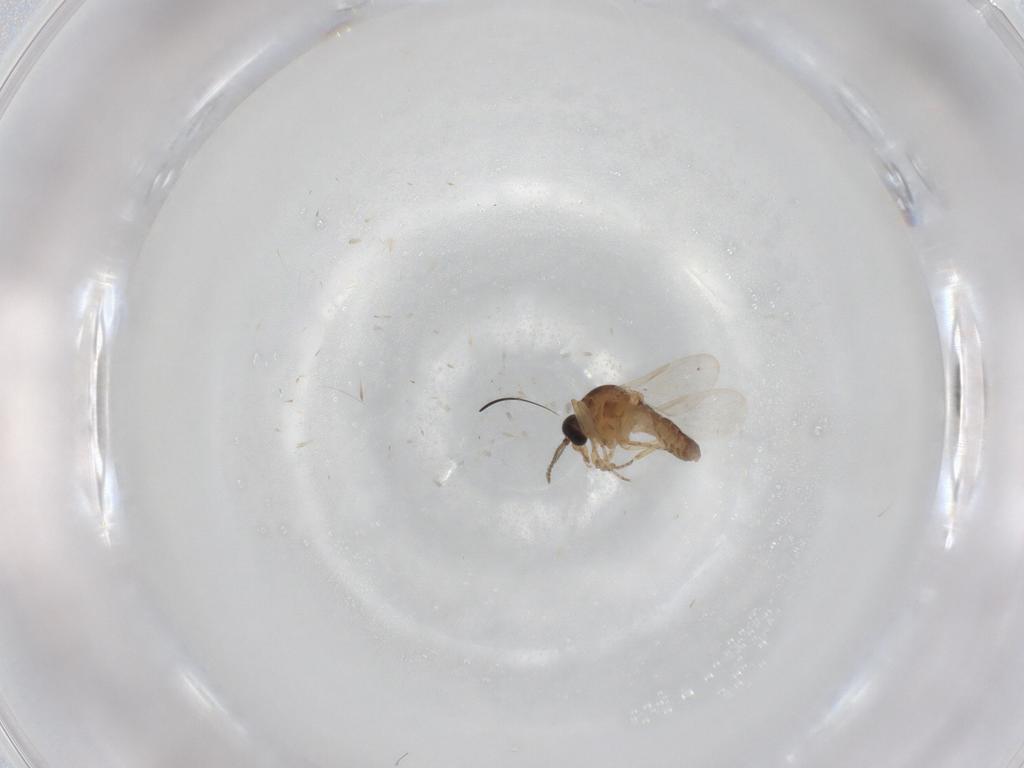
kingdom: Animalia
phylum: Arthropoda
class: Insecta
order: Diptera
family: Ceratopogonidae
